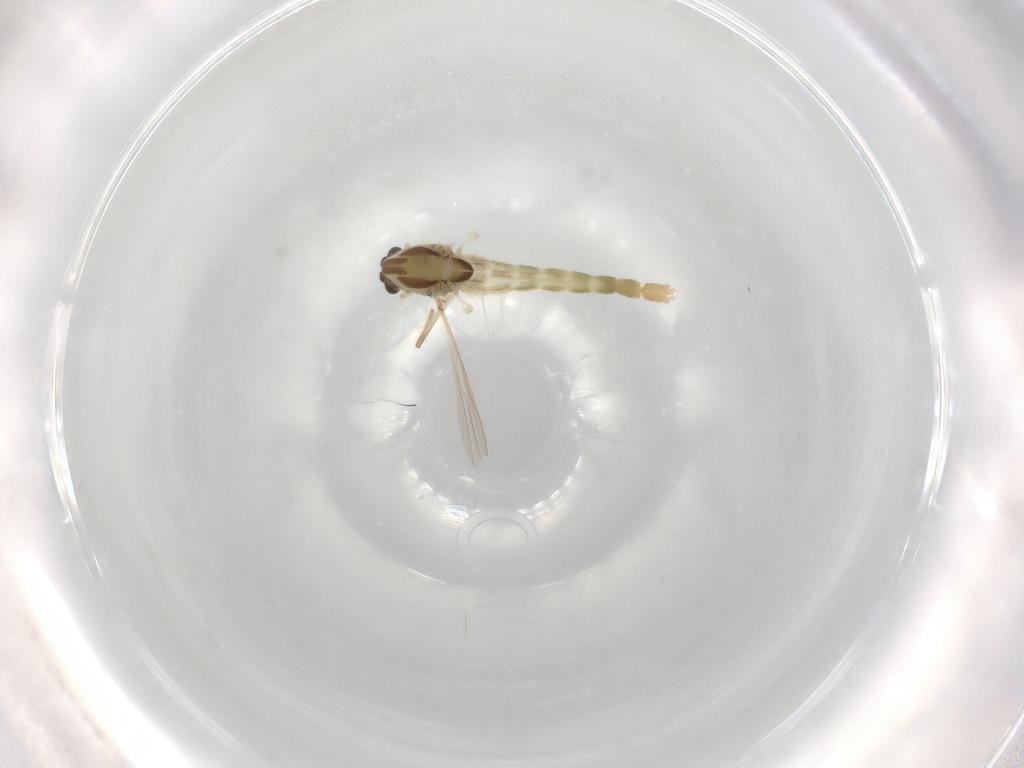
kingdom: Animalia
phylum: Arthropoda
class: Insecta
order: Diptera
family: Chironomidae
